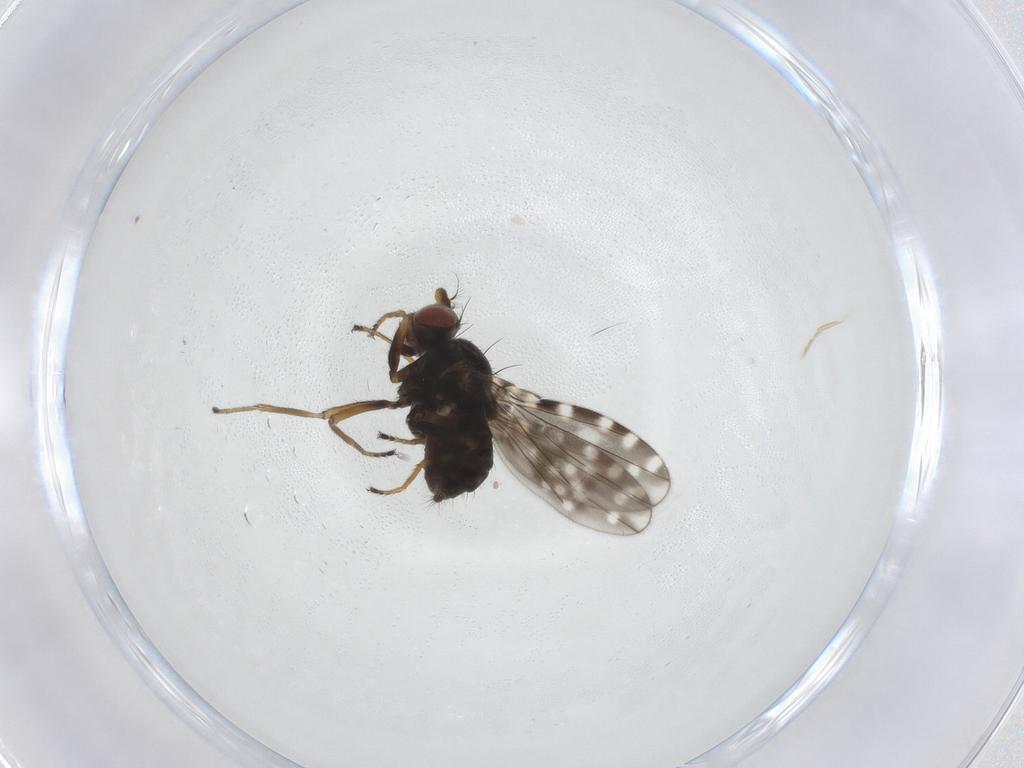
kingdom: Animalia
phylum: Arthropoda
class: Insecta
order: Diptera
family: Ephydridae
